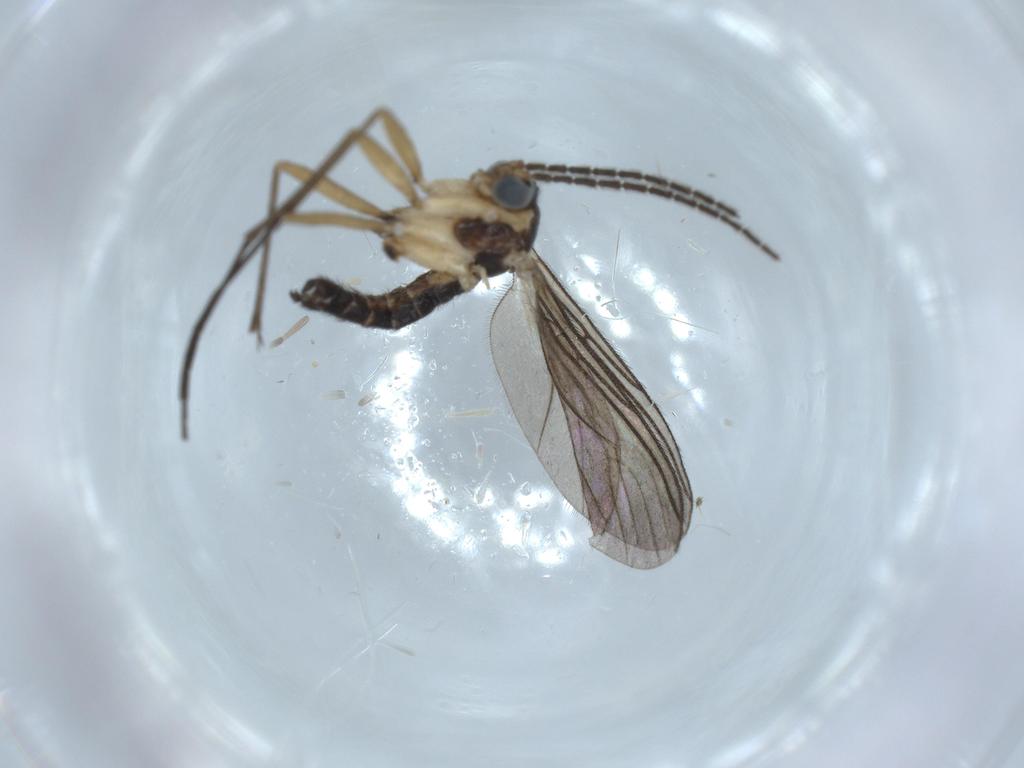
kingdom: Animalia
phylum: Arthropoda
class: Insecta
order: Diptera
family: Sciaridae
